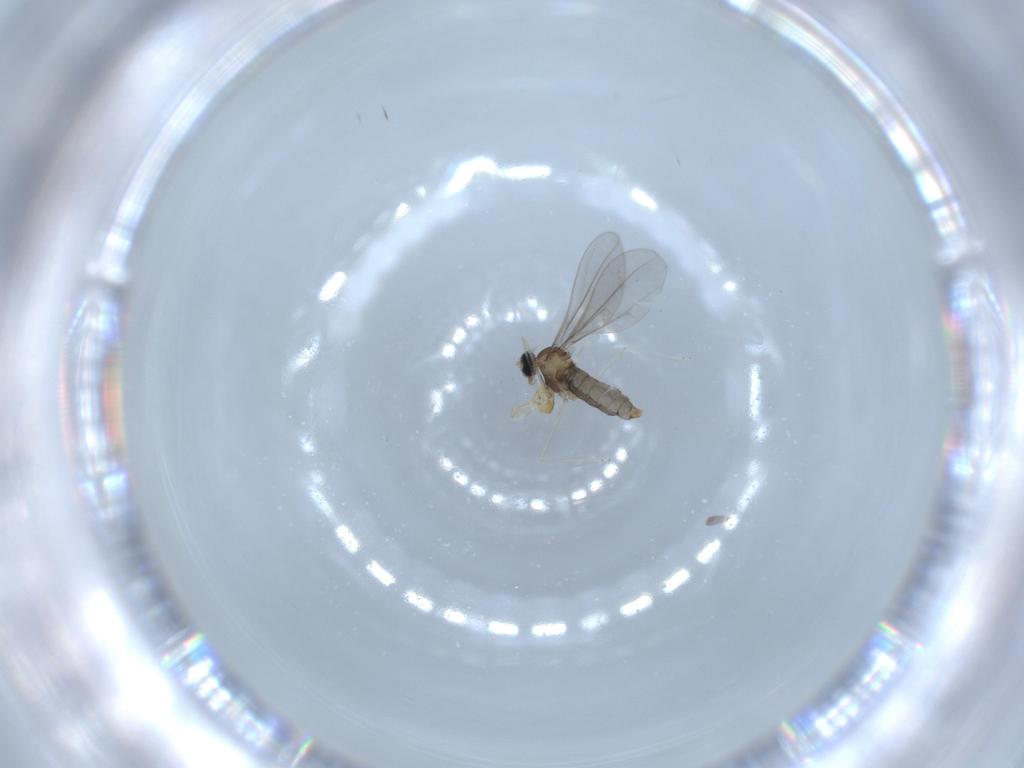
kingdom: Animalia
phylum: Arthropoda
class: Insecta
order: Diptera
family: Cecidomyiidae
